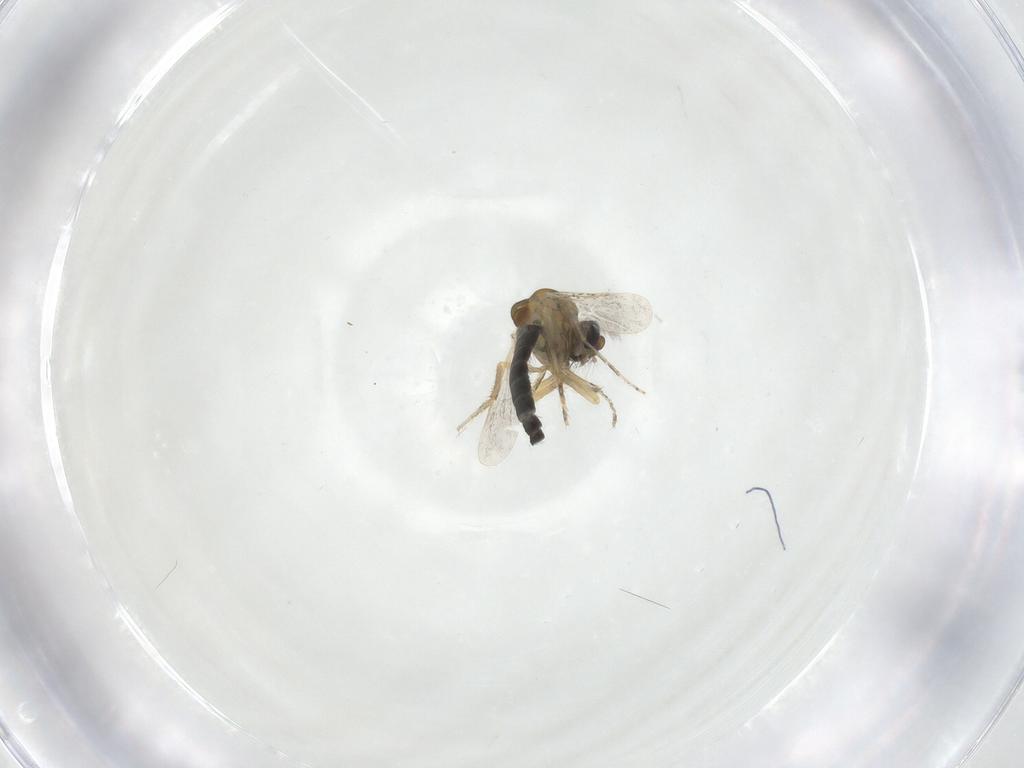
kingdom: Animalia
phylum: Arthropoda
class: Insecta
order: Diptera
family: Ceratopogonidae
